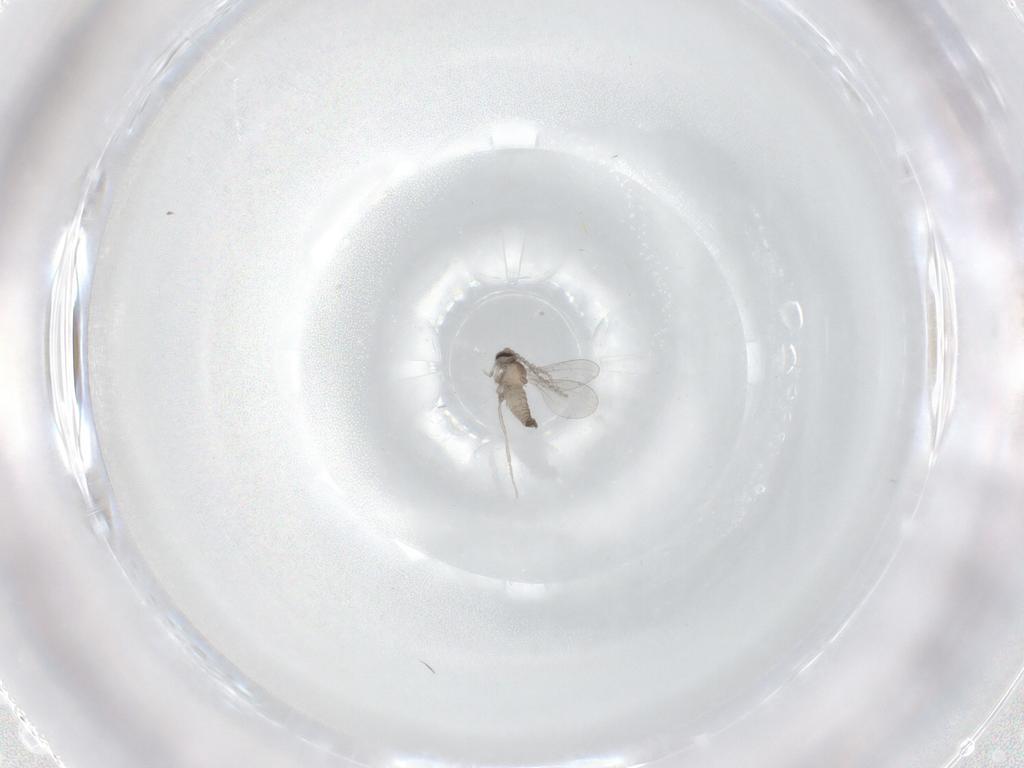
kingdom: Animalia
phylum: Arthropoda
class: Insecta
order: Diptera
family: Cecidomyiidae
